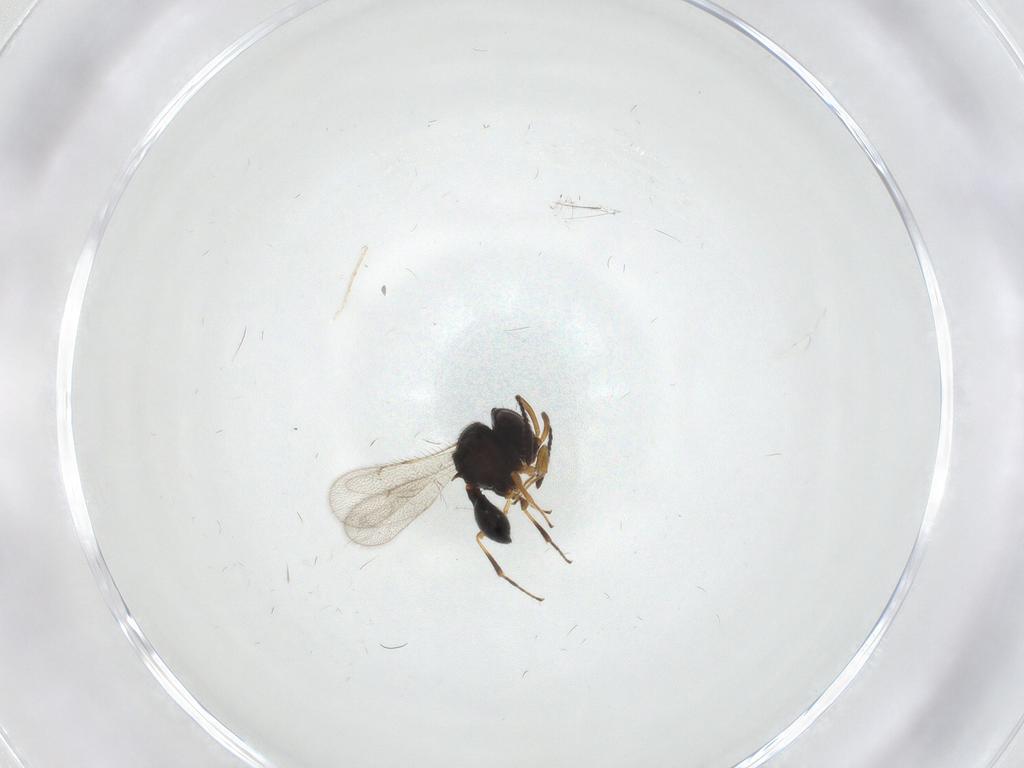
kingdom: Animalia
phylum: Arthropoda
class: Insecta
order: Hymenoptera
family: Scelionidae
